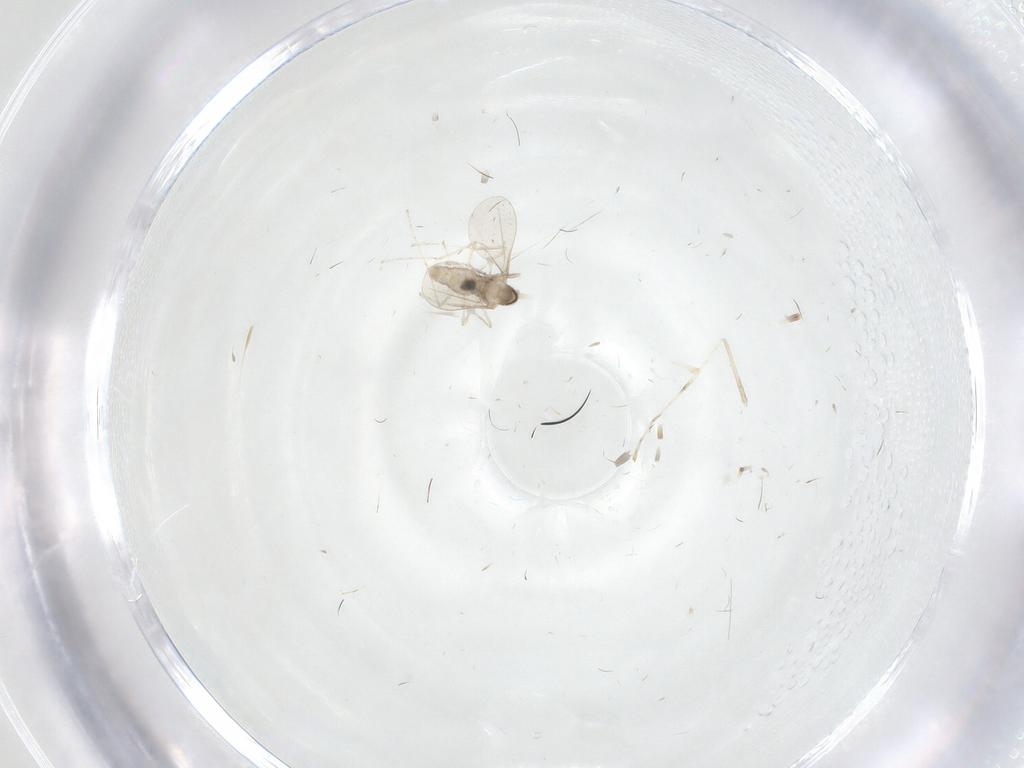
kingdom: Animalia
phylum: Arthropoda
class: Insecta
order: Diptera
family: Cecidomyiidae
